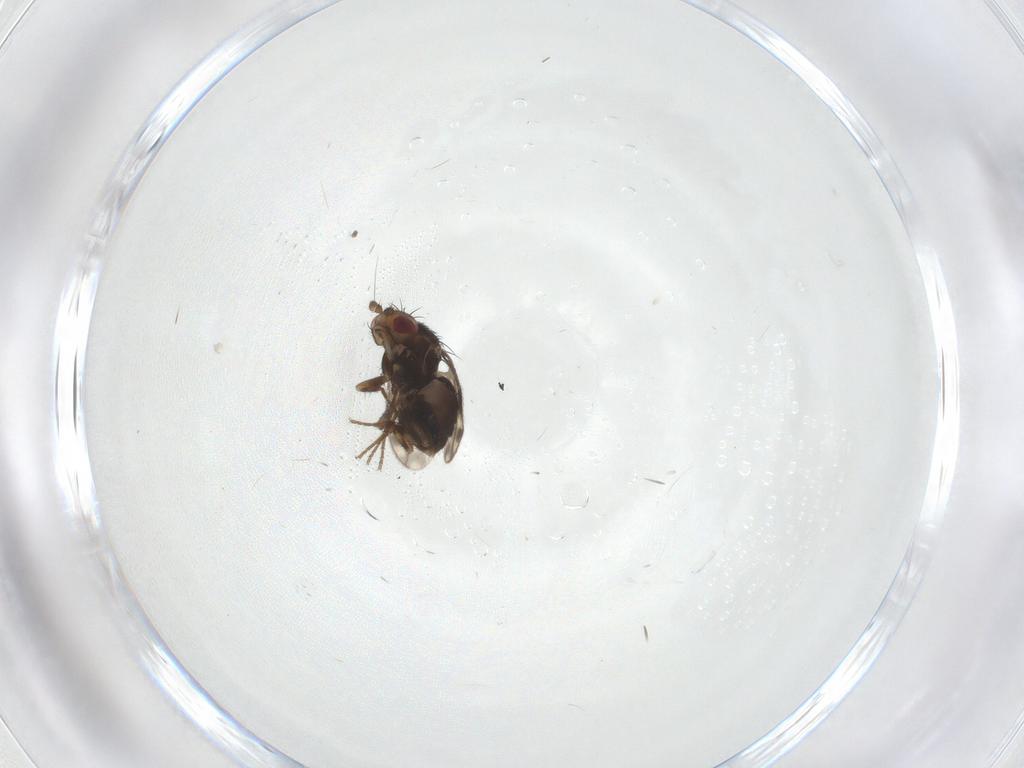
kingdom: Animalia
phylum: Arthropoda
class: Insecta
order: Diptera
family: Sphaeroceridae
